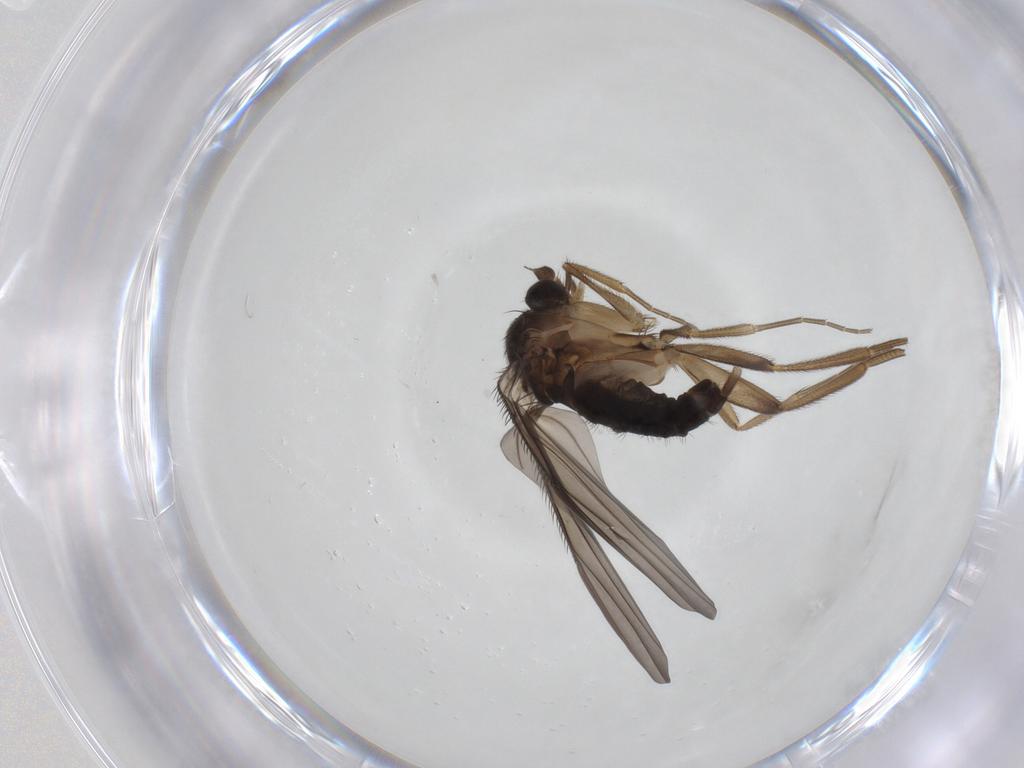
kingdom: Animalia
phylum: Arthropoda
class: Insecta
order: Diptera
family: Phoridae
